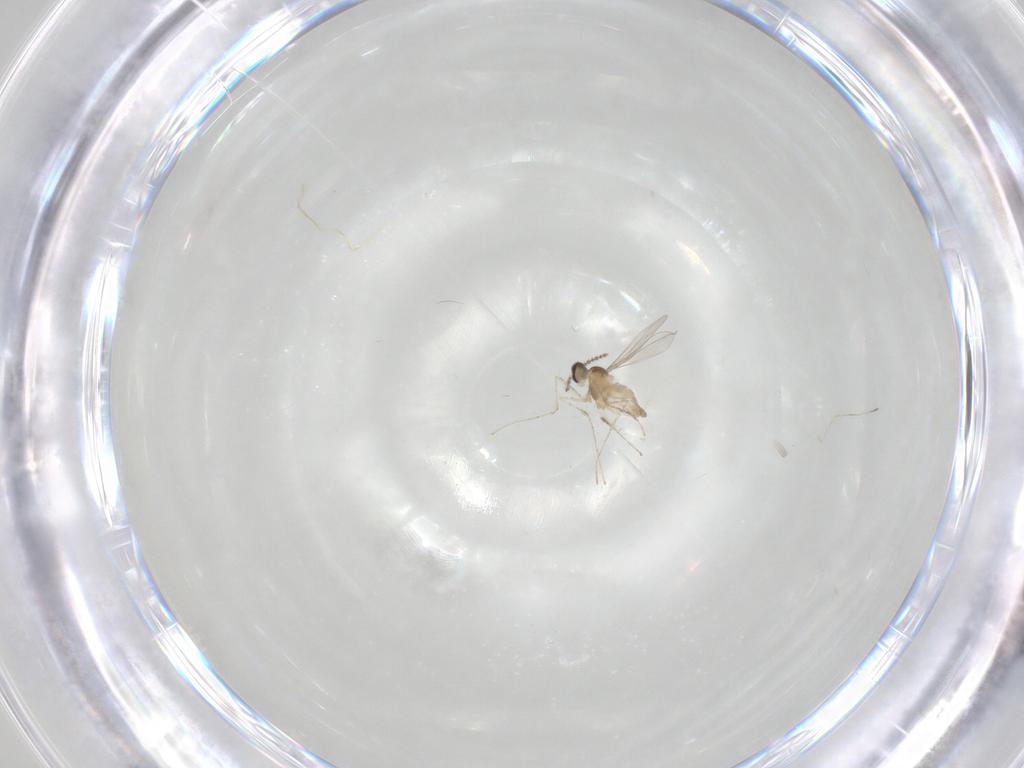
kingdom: Animalia
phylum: Arthropoda
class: Insecta
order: Diptera
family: Cecidomyiidae
